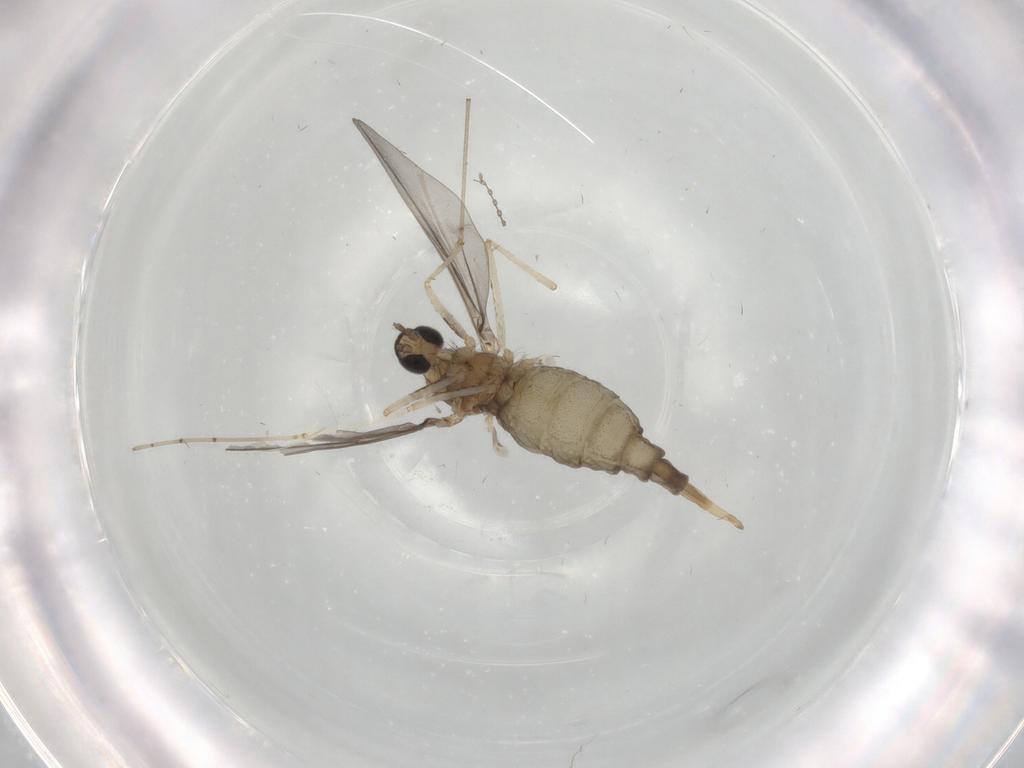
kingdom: Animalia
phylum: Arthropoda
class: Insecta
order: Diptera
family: Cecidomyiidae
